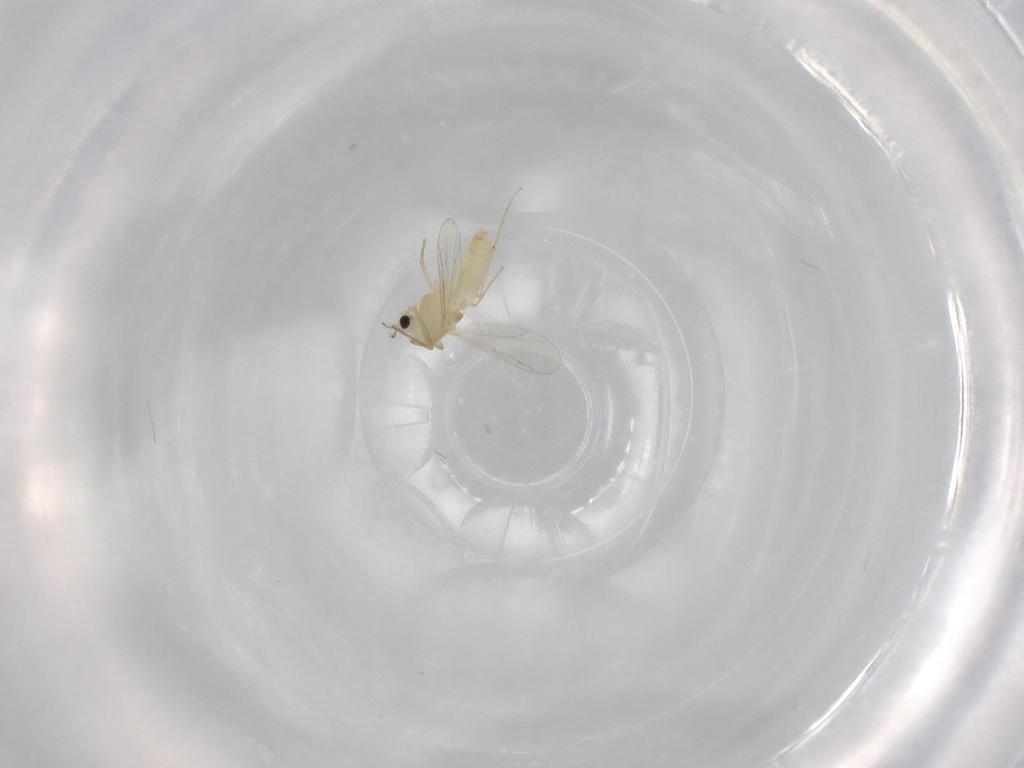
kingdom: Animalia
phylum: Arthropoda
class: Insecta
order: Diptera
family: Chironomidae
